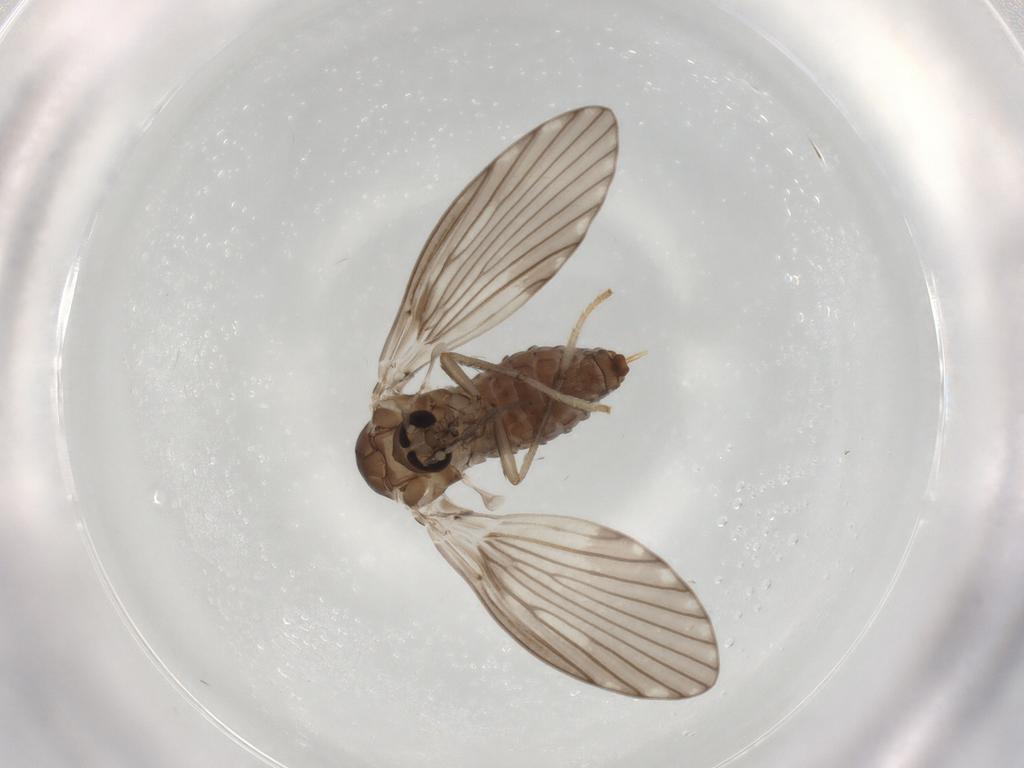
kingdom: Animalia
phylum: Arthropoda
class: Insecta
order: Diptera
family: Psychodidae
